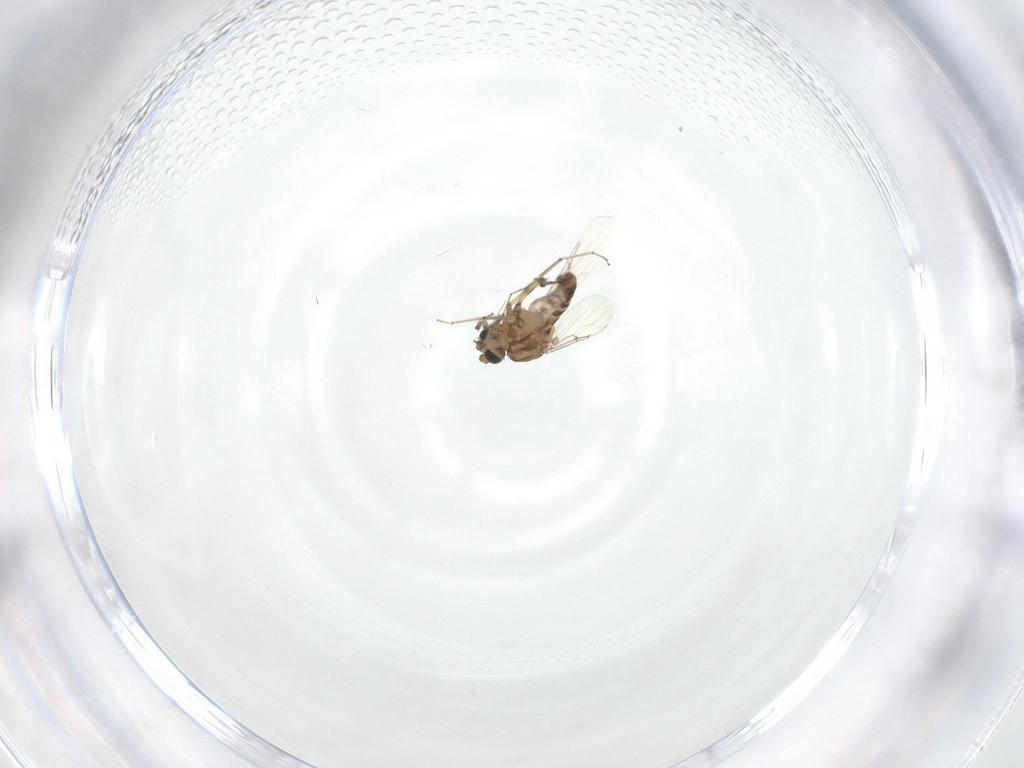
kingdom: Animalia
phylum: Arthropoda
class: Insecta
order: Diptera
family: Ceratopogonidae
